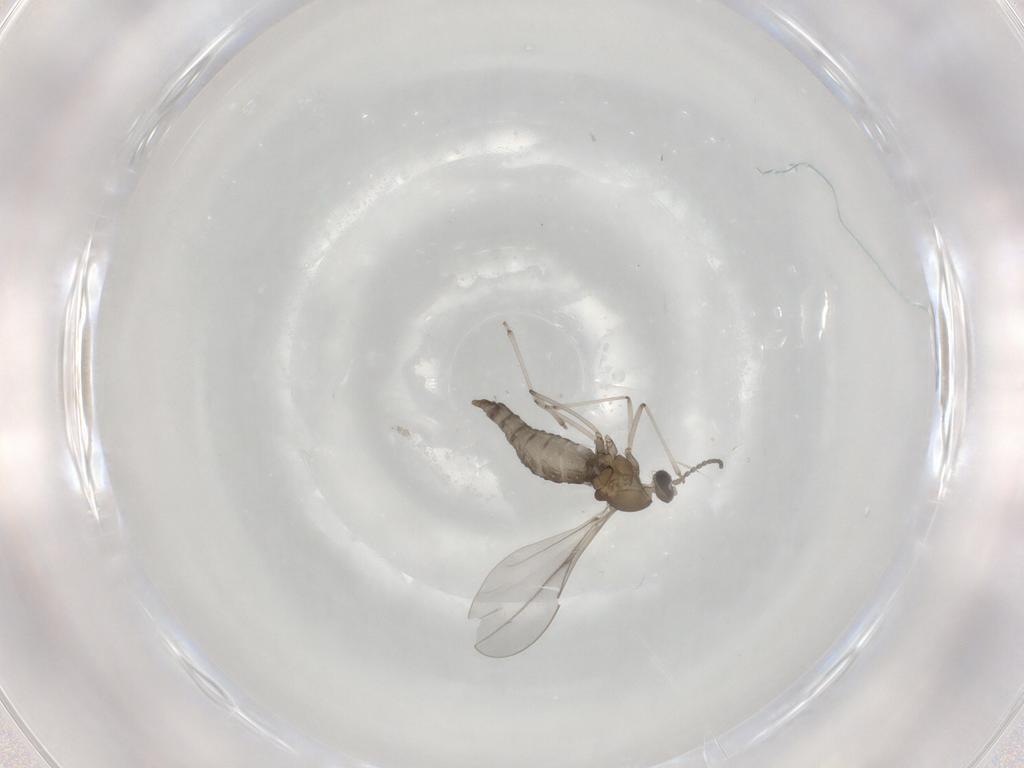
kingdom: Animalia
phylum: Arthropoda
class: Insecta
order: Diptera
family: Cecidomyiidae
